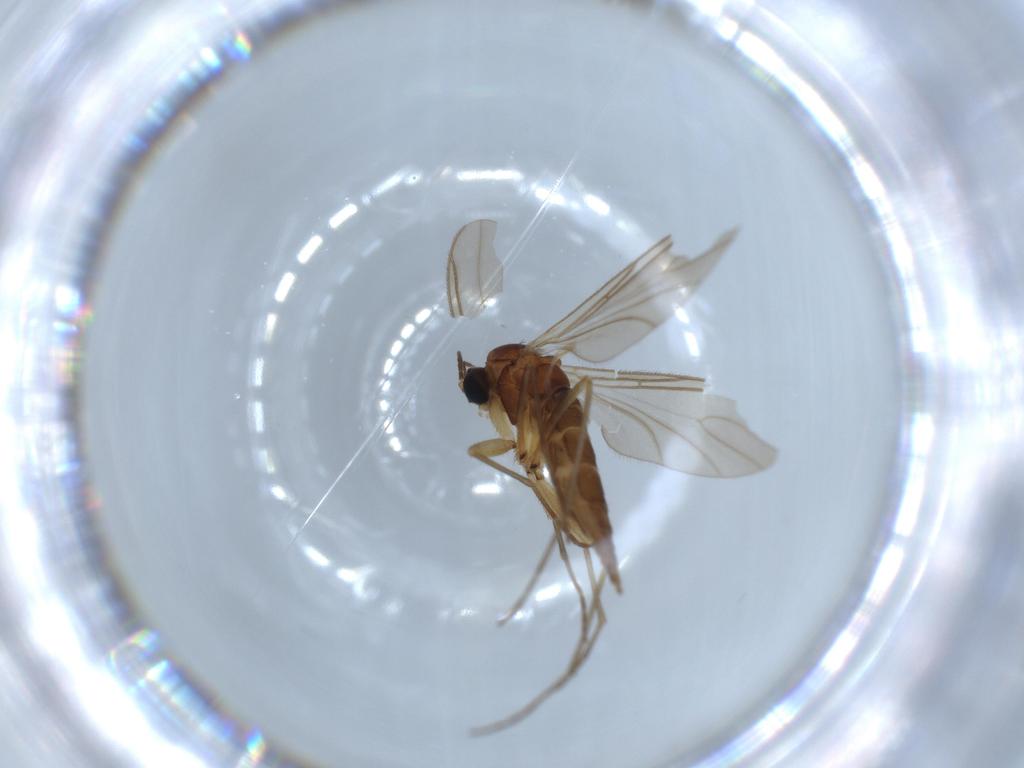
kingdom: Animalia
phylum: Arthropoda
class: Insecta
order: Diptera
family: Sciaridae
